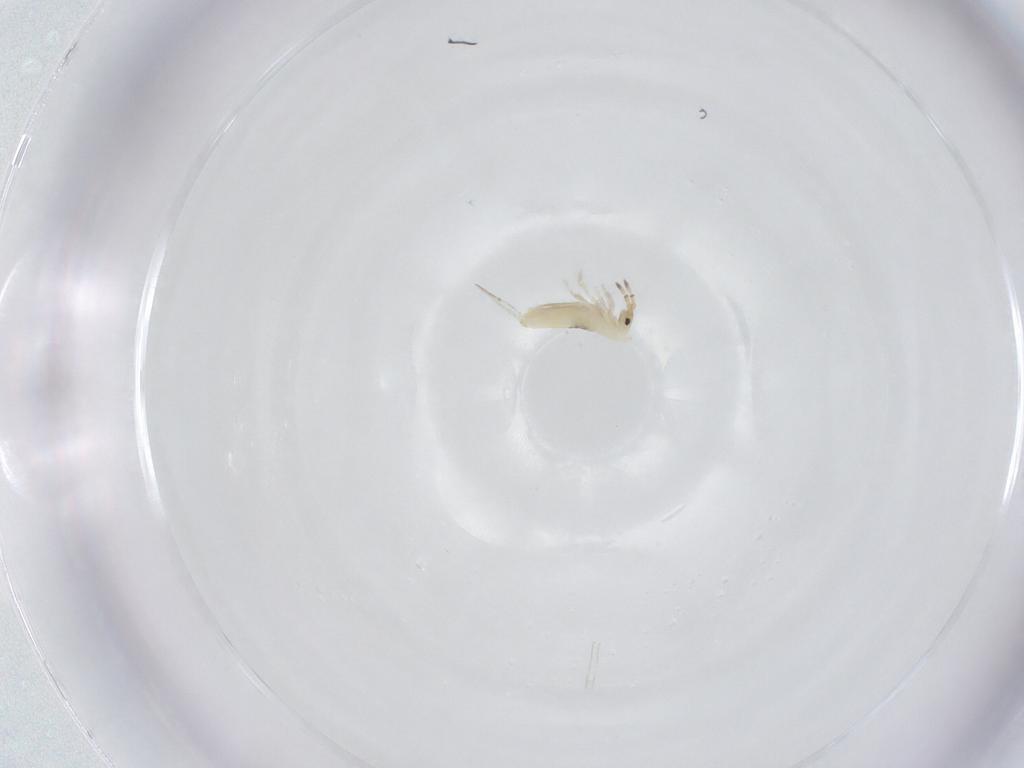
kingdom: Animalia
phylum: Arthropoda
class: Collembola
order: Entomobryomorpha
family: Entomobryidae
